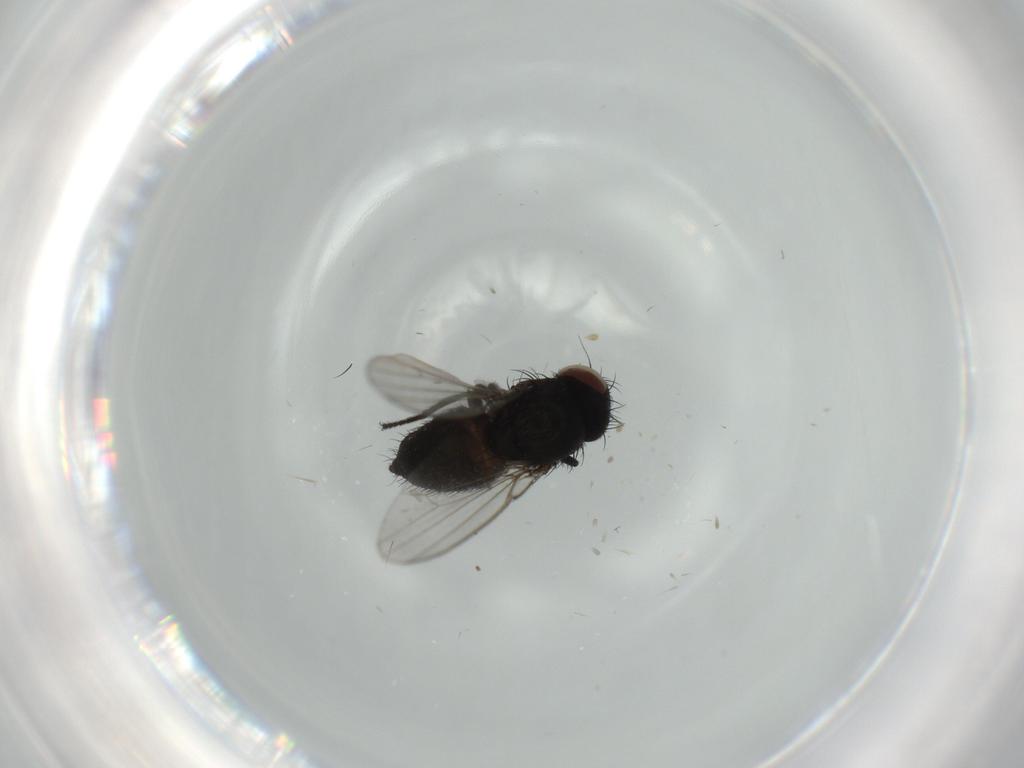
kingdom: Animalia
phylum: Arthropoda
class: Insecta
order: Diptera
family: Milichiidae
